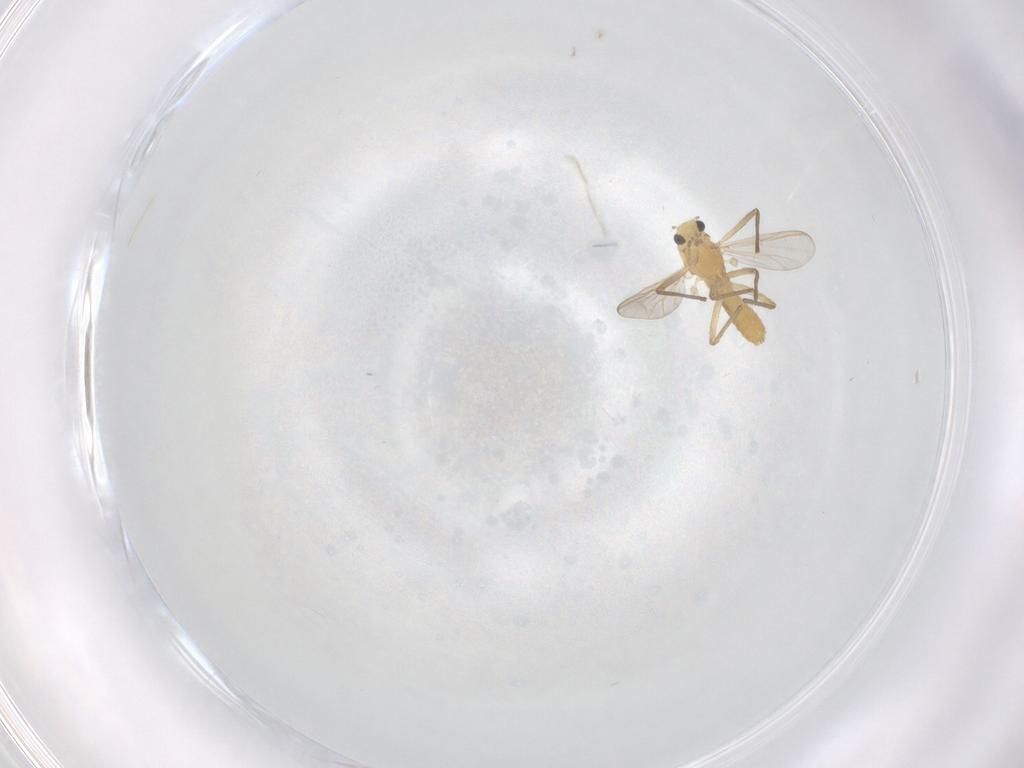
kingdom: Animalia
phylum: Arthropoda
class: Insecta
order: Diptera
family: Chironomidae
